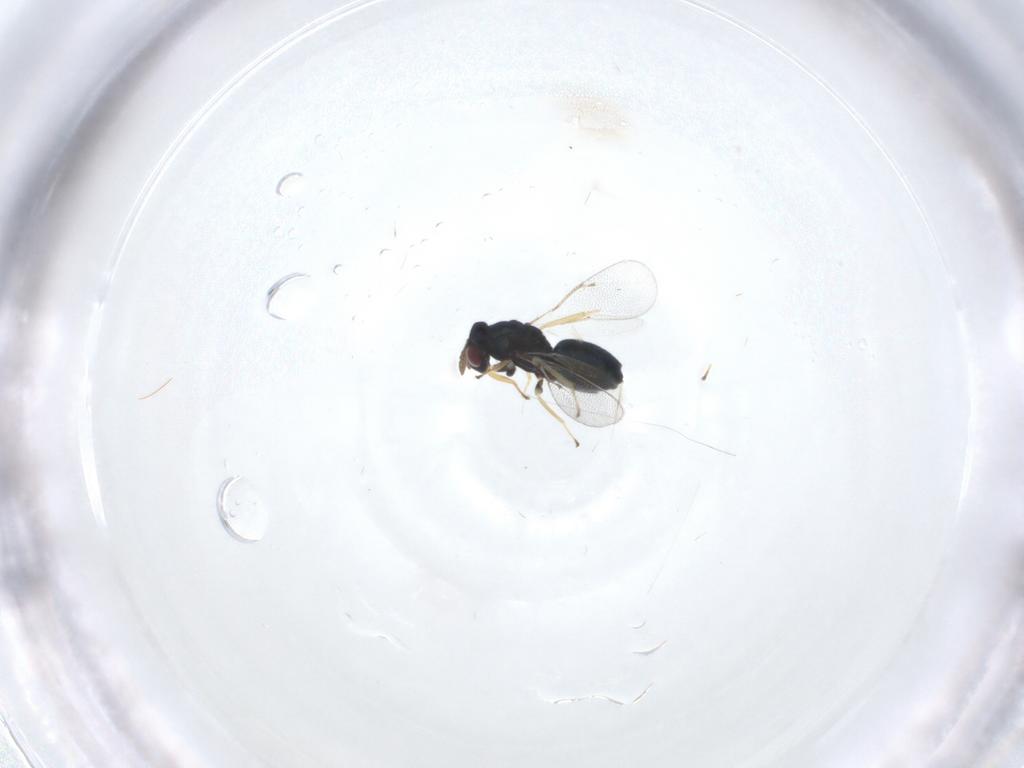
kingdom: Animalia
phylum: Arthropoda
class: Insecta
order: Hymenoptera
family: Eulophidae
